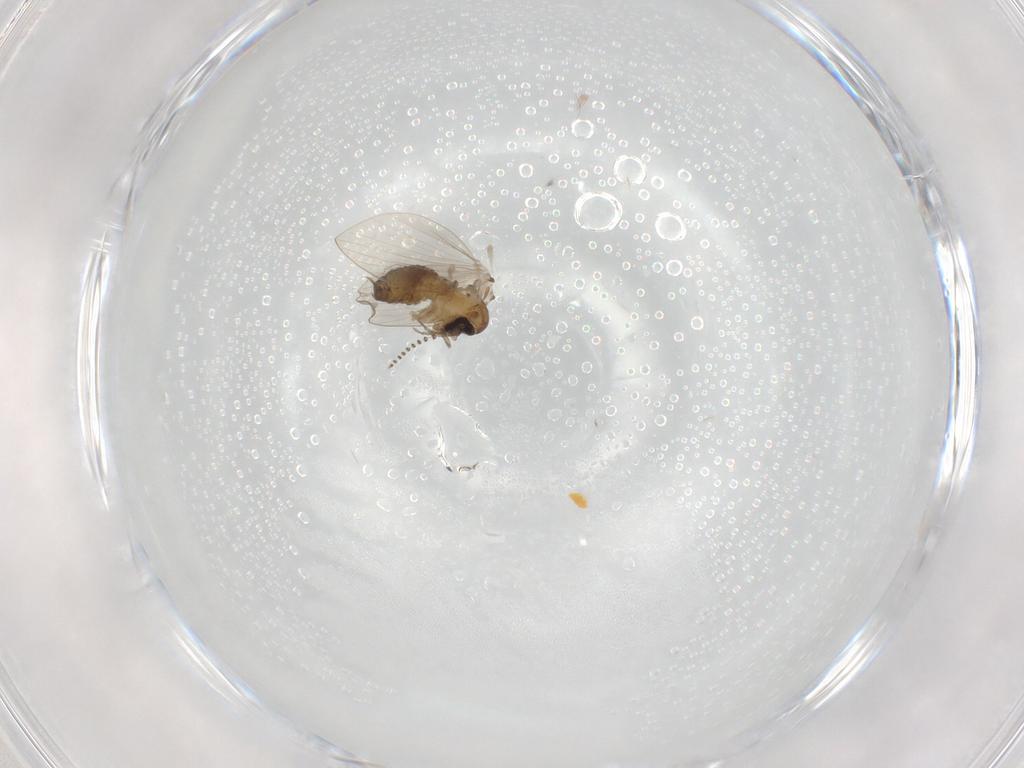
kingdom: Animalia
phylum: Arthropoda
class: Insecta
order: Diptera
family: Psychodidae
